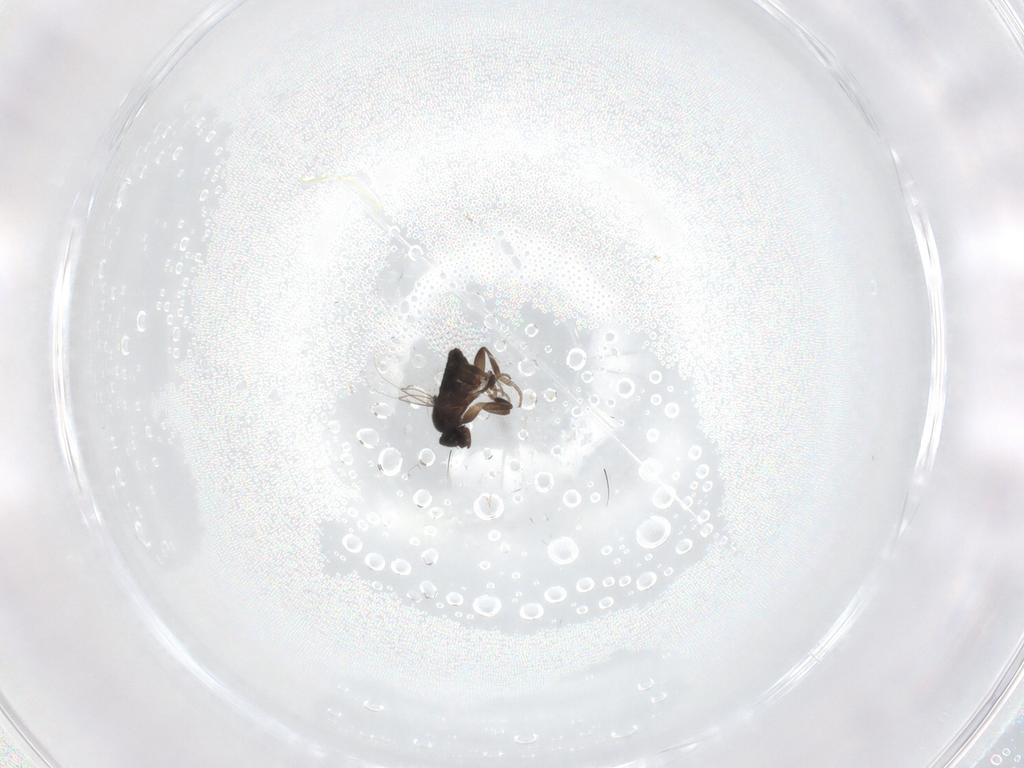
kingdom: Animalia
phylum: Arthropoda
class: Insecta
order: Diptera
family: Phoridae
